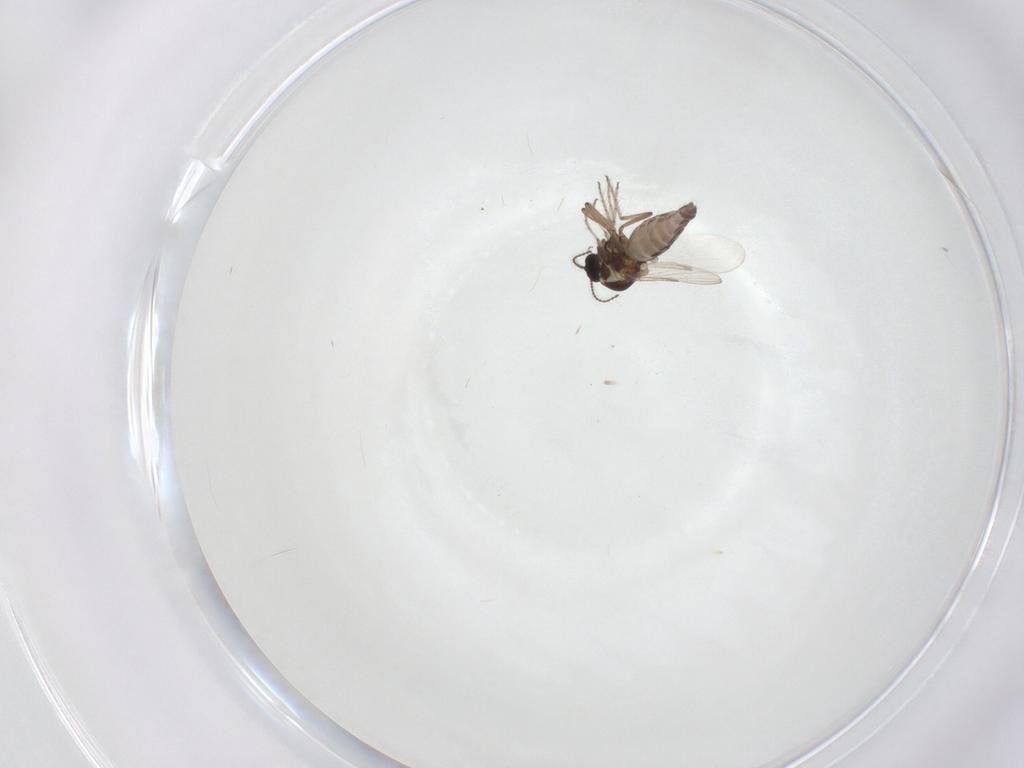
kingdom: Animalia
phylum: Arthropoda
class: Insecta
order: Diptera
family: Ceratopogonidae
